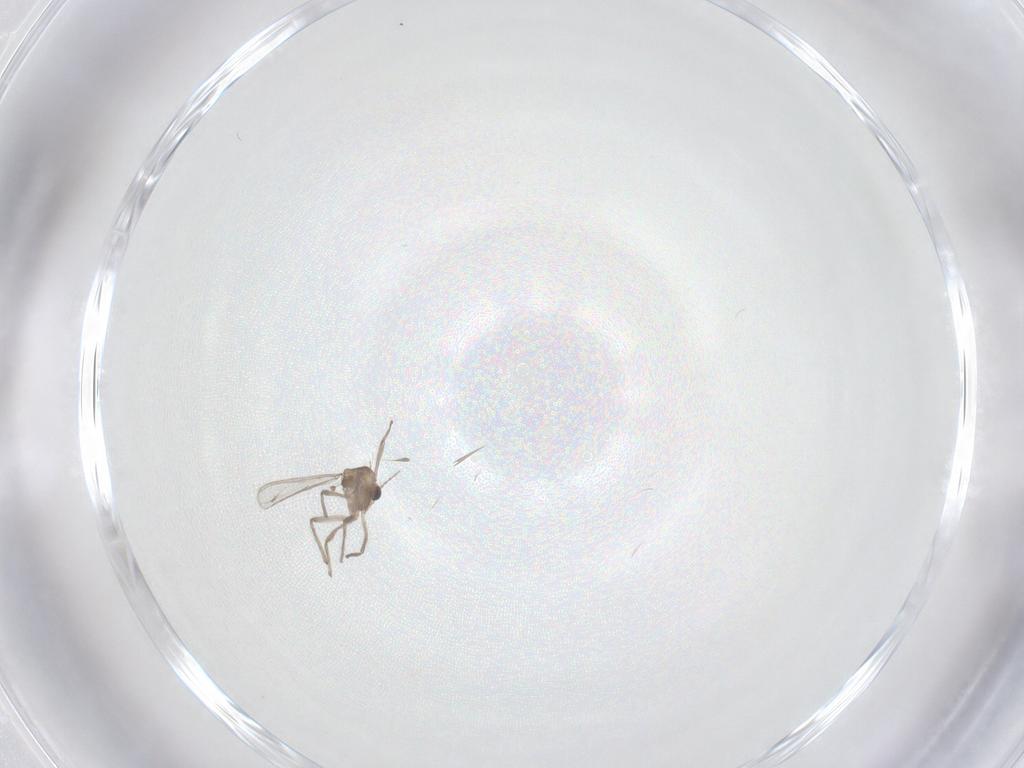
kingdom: Animalia
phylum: Arthropoda
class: Insecta
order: Diptera
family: Chironomidae
